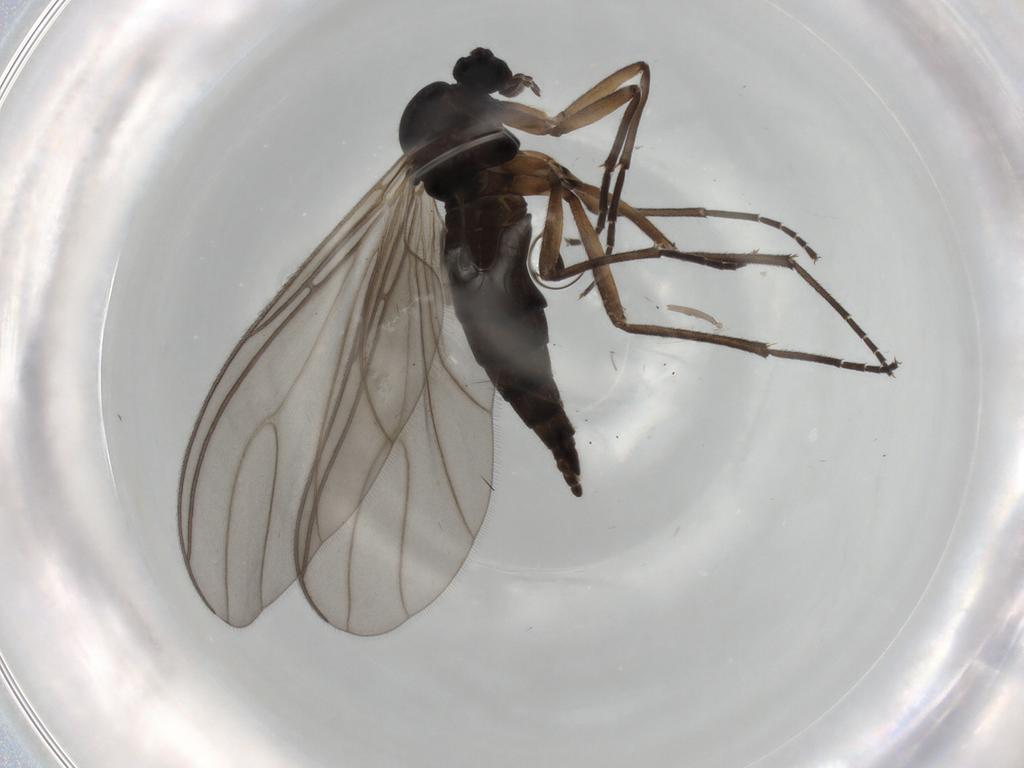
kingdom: Animalia
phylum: Arthropoda
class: Insecta
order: Diptera
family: Sciaridae
